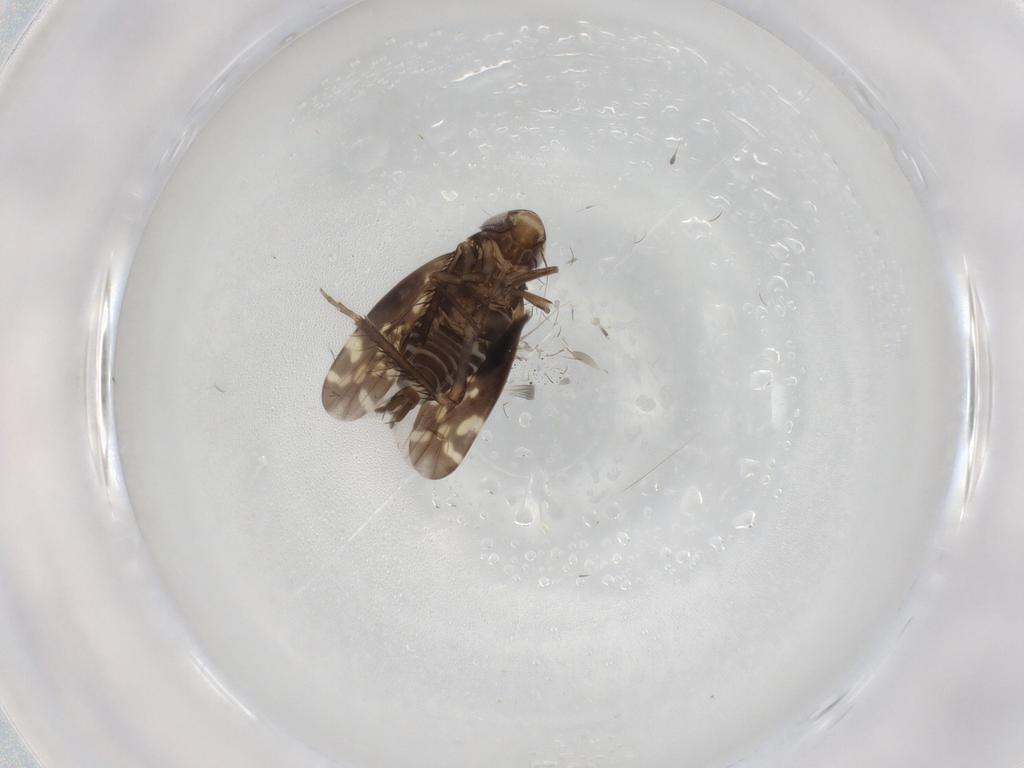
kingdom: Animalia
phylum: Arthropoda
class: Insecta
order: Hemiptera
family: Cicadellidae
